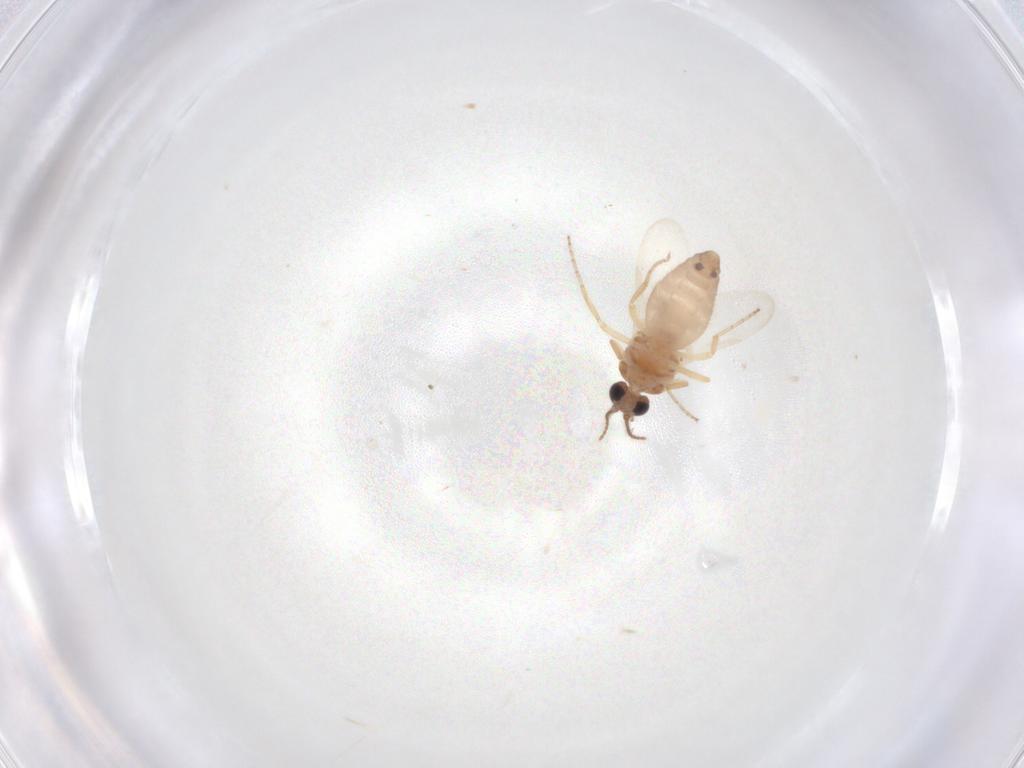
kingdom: Animalia
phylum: Arthropoda
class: Insecta
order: Diptera
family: Ceratopogonidae
